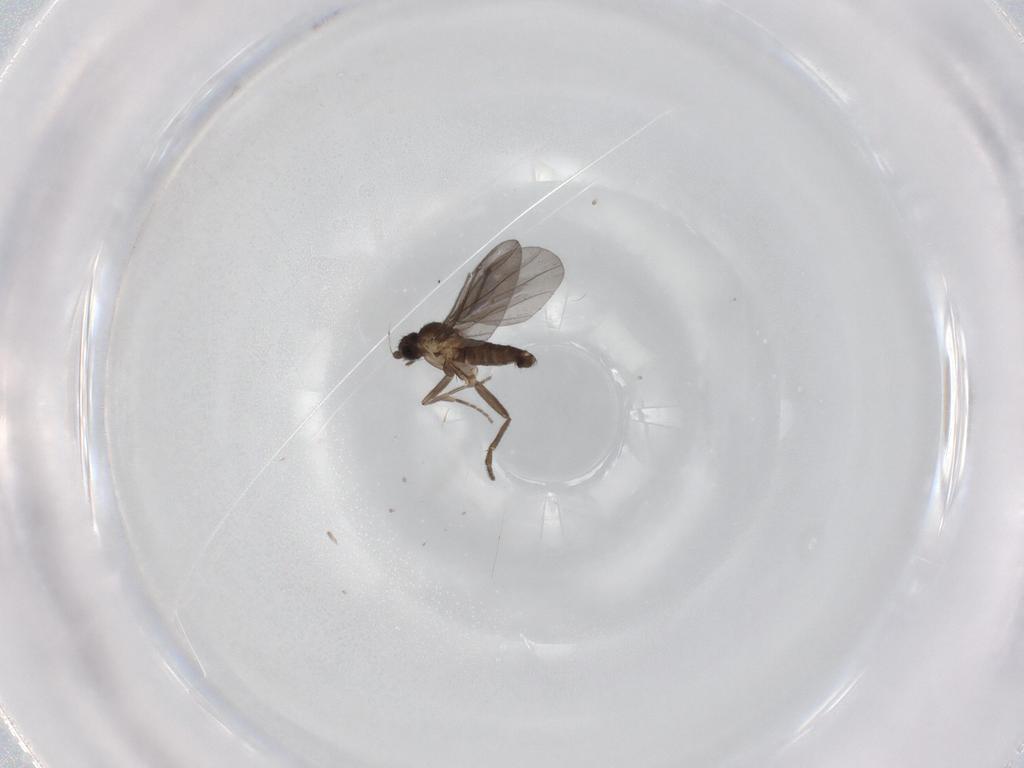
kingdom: Animalia
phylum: Arthropoda
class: Insecta
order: Diptera
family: Phoridae
